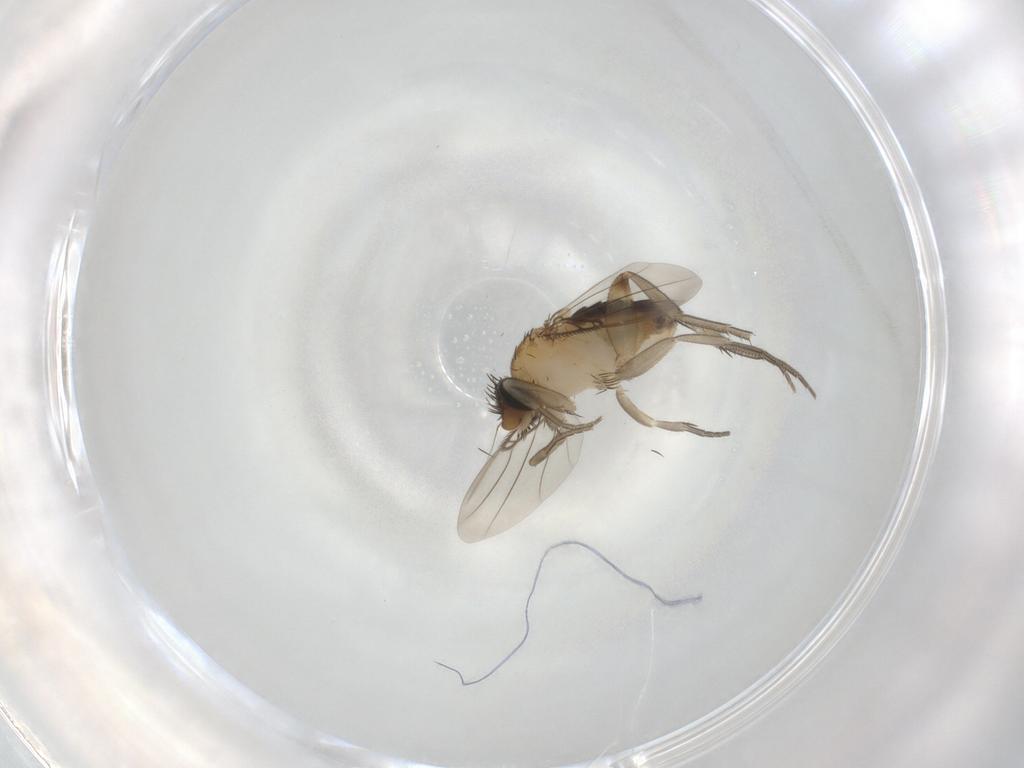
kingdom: Animalia
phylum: Arthropoda
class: Insecta
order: Diptera
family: Phoridae
